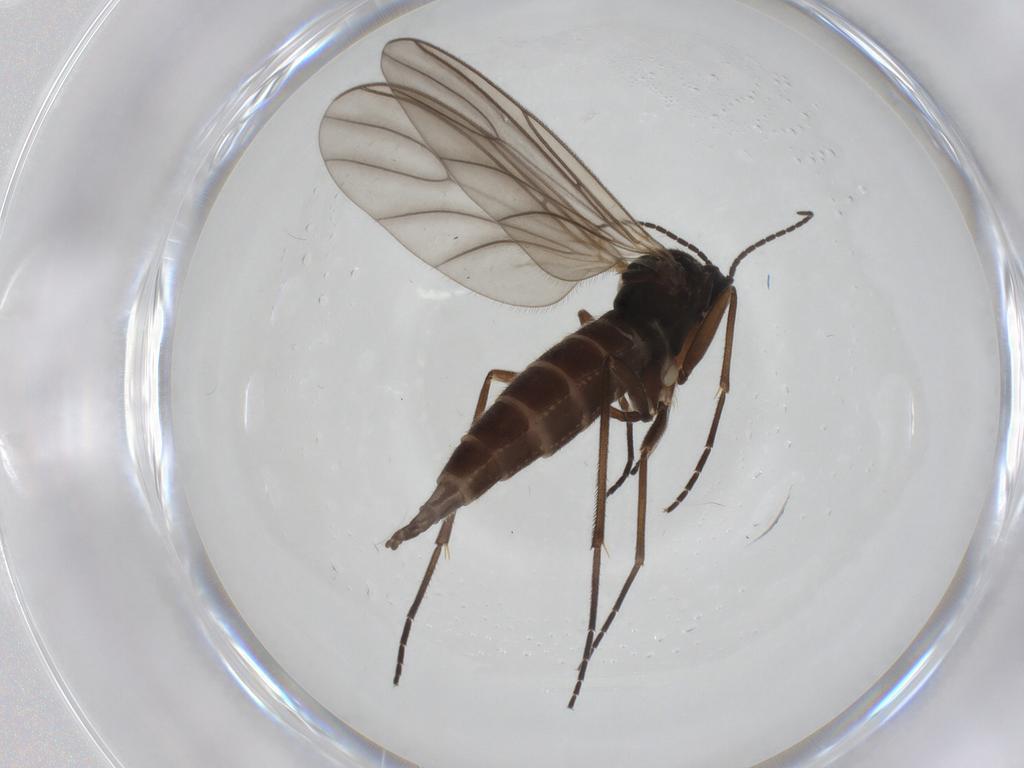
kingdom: Animalia
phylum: Arthropoda
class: Insecta
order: Diptera
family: Sciaridae
